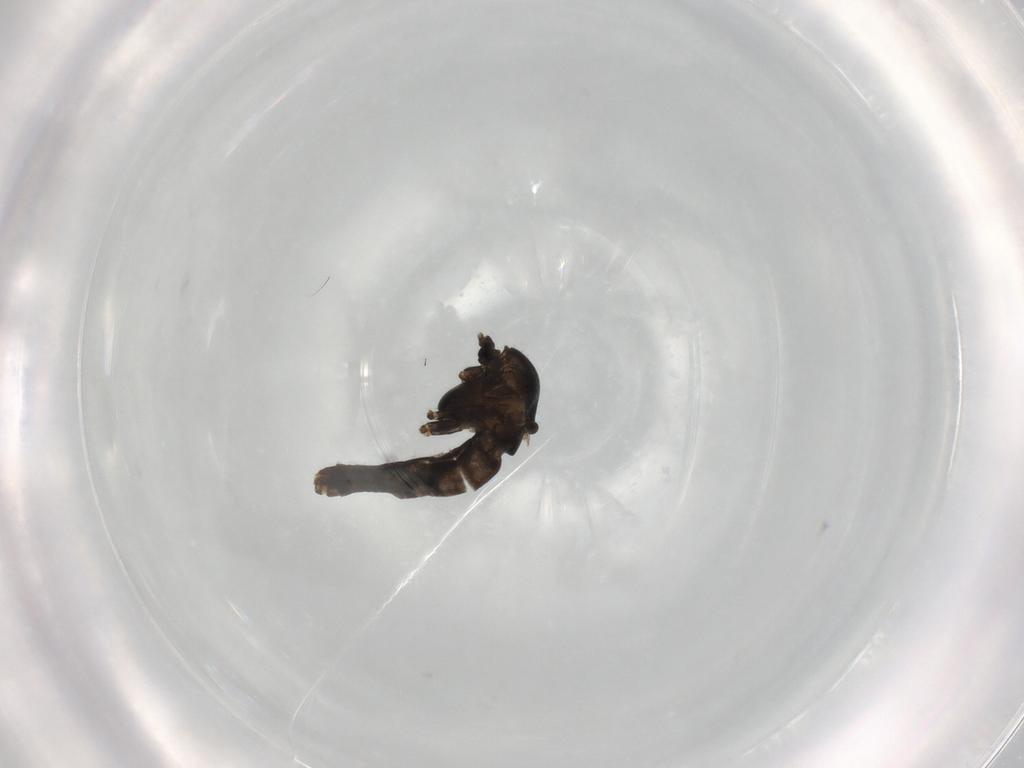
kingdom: Animalia
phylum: Arthropoda
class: Insecta
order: Diptera
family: Chironomidae
